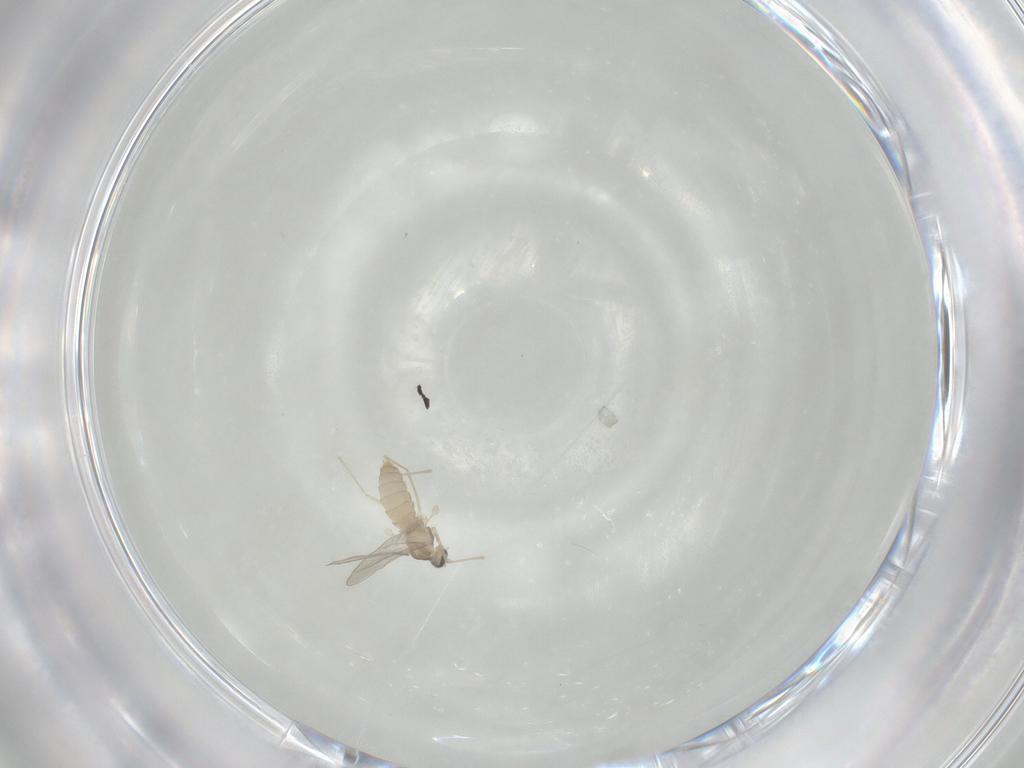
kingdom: Animalia
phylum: Arthropoda
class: Insecta
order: Diptera
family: Cecidomyiidae
